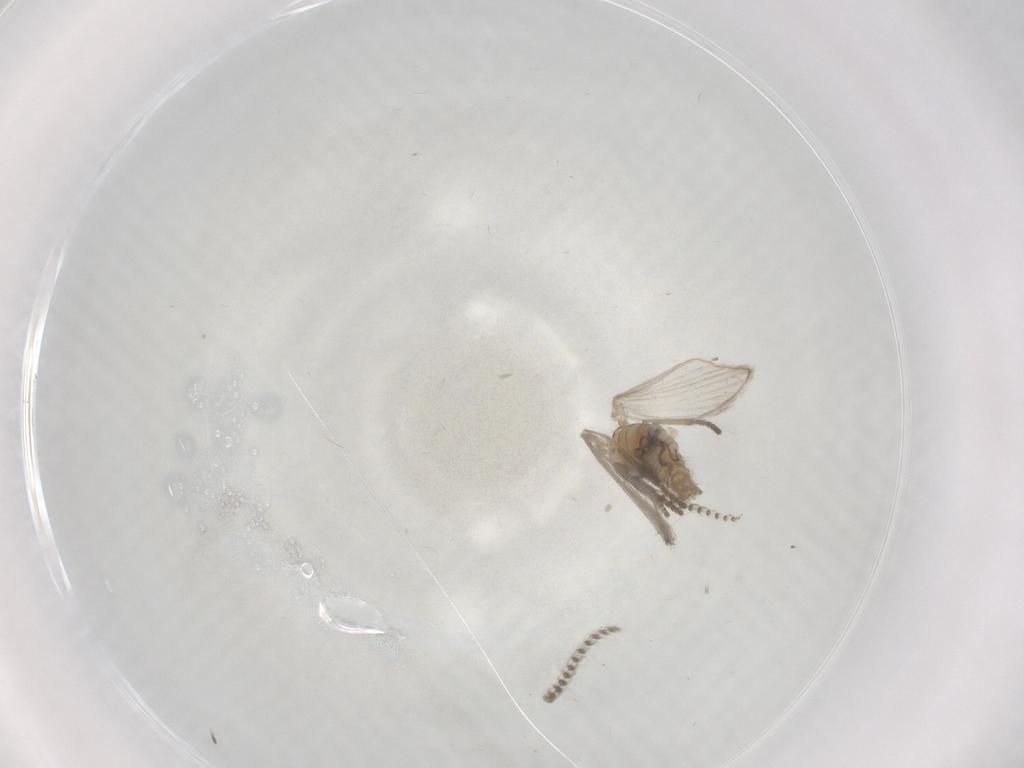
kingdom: Animalia
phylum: Arthropoda
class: Insecta
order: Diptera
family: Psychodidae
